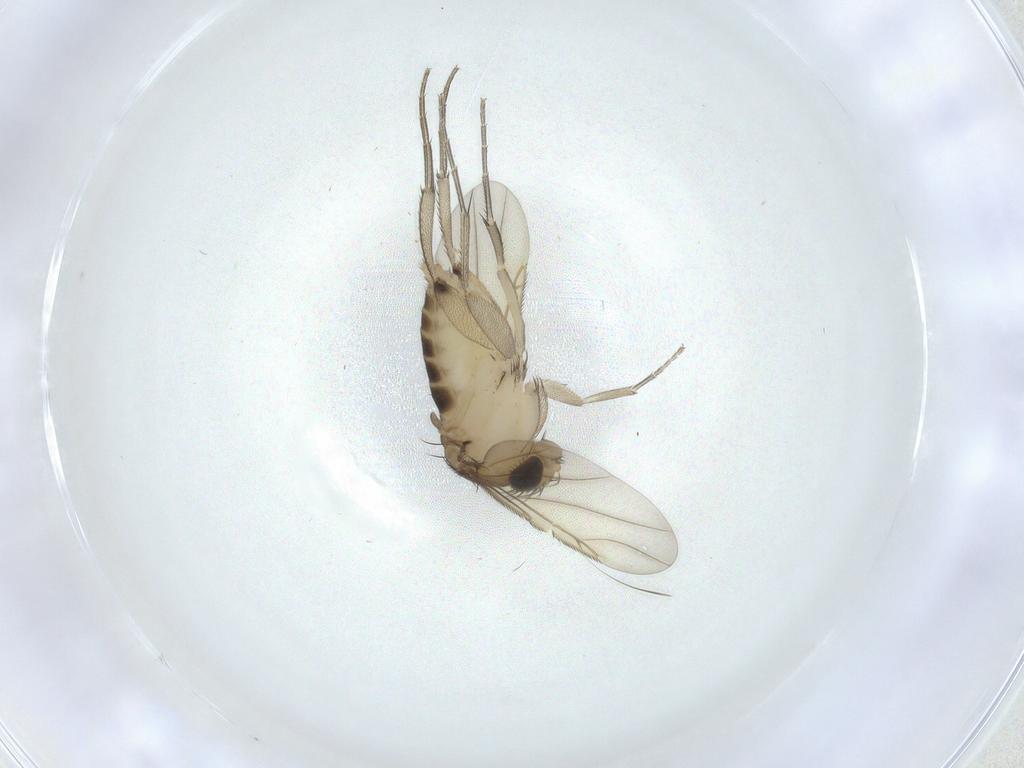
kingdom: Animalia
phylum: Arthropoda
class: Insecta
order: Diptera
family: Phoridae
